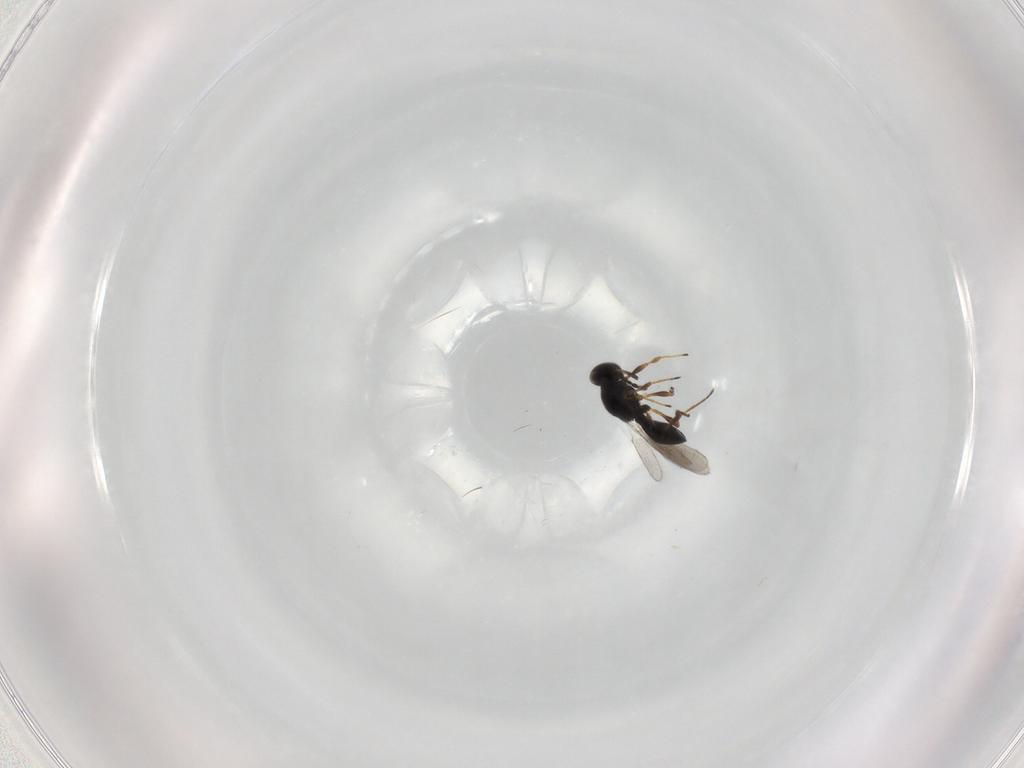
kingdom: Animalia
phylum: Arthropoda
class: Insecta
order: Hymenoptera
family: Platygastridae
